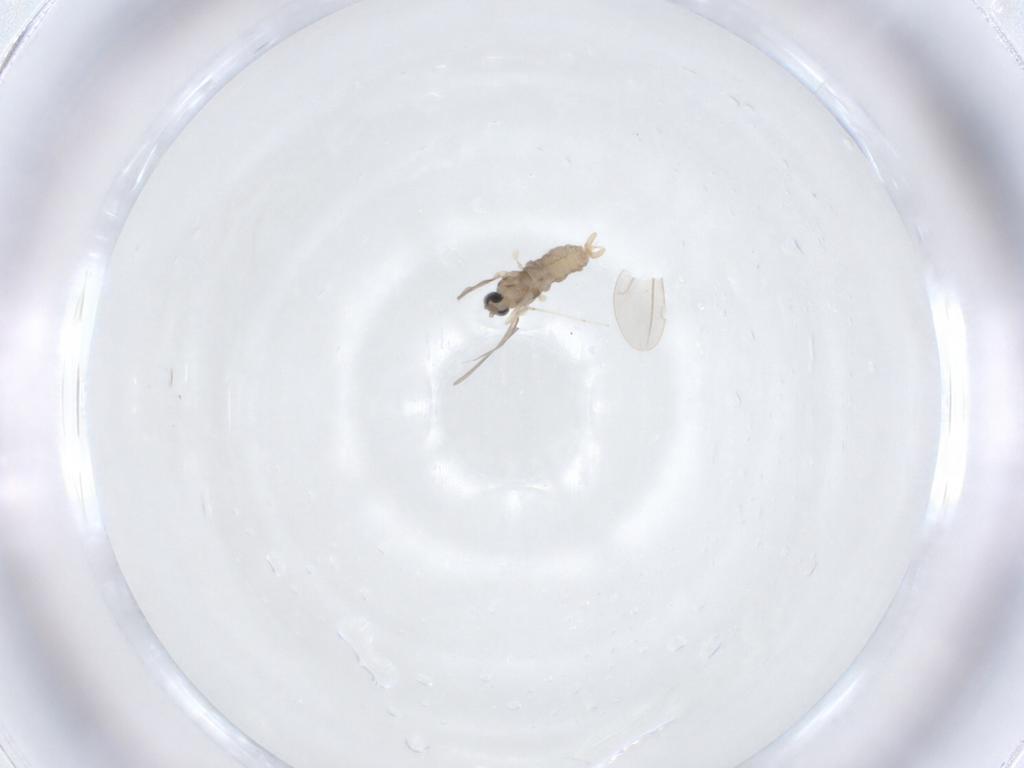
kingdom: Animalia
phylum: Arthropoda
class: Insecta
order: Diptera
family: Cecidomyiidae
